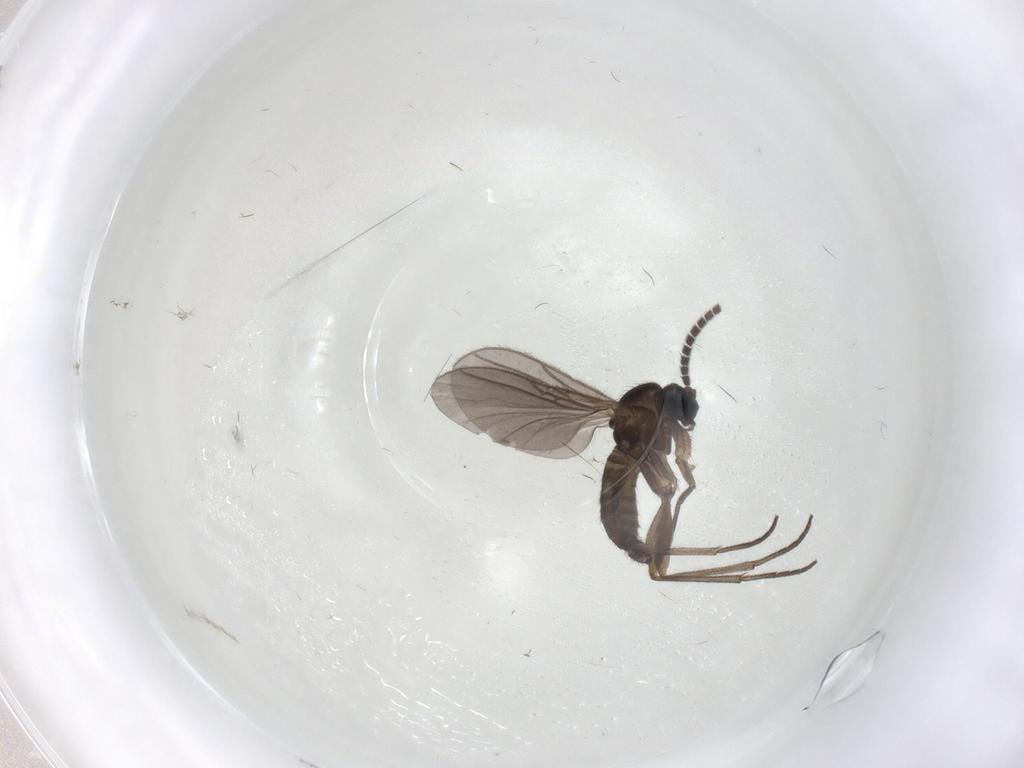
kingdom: Animalia
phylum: Arthropoda
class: Insecta
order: Diptera
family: Sciaridae
